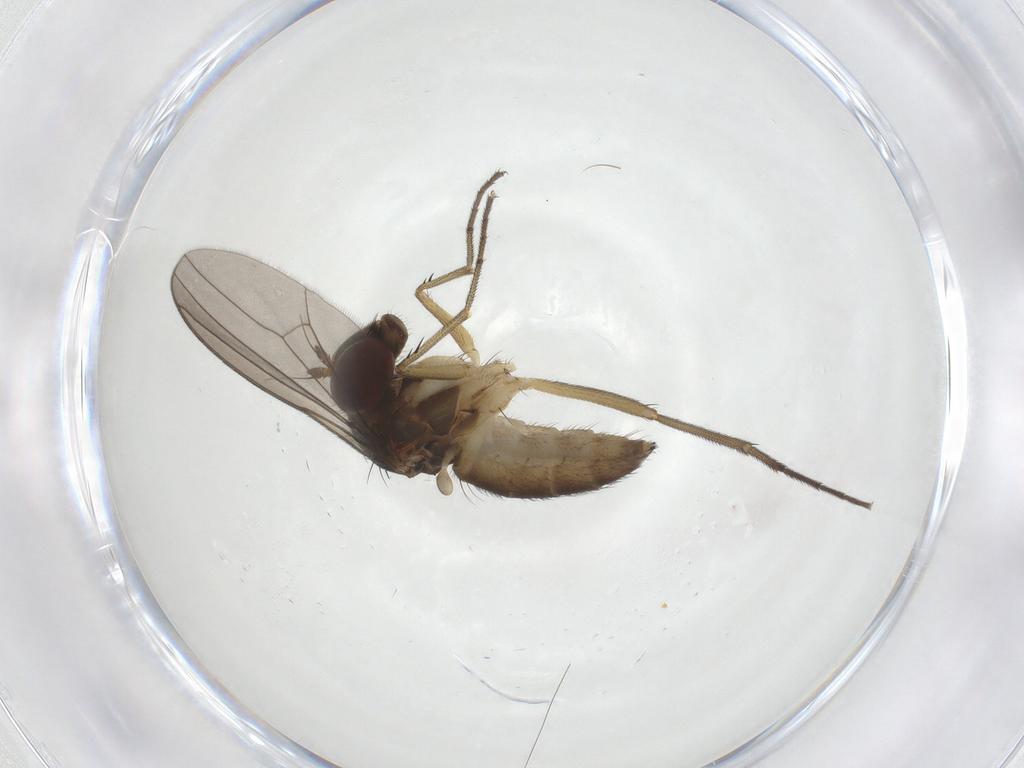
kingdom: Animalia
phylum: Arthropoda
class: Insecta
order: Diptera
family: Dolichopodidae
